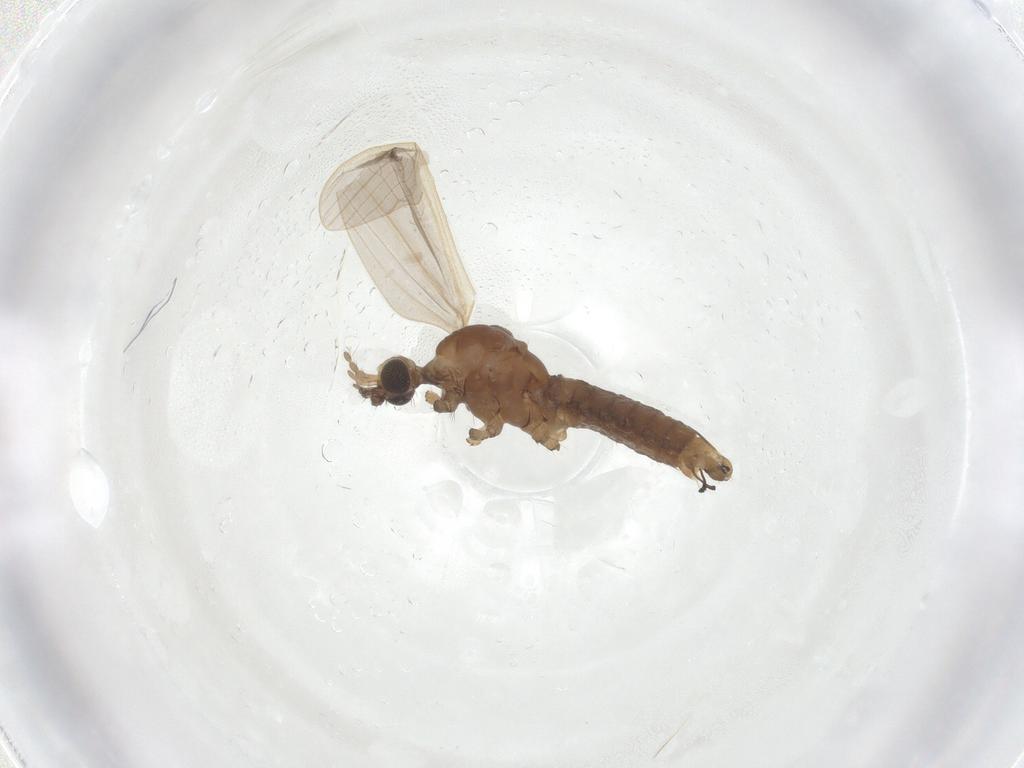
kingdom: Animalia
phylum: Arthropoda
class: Insecta
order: Diptera
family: Limoniidae
